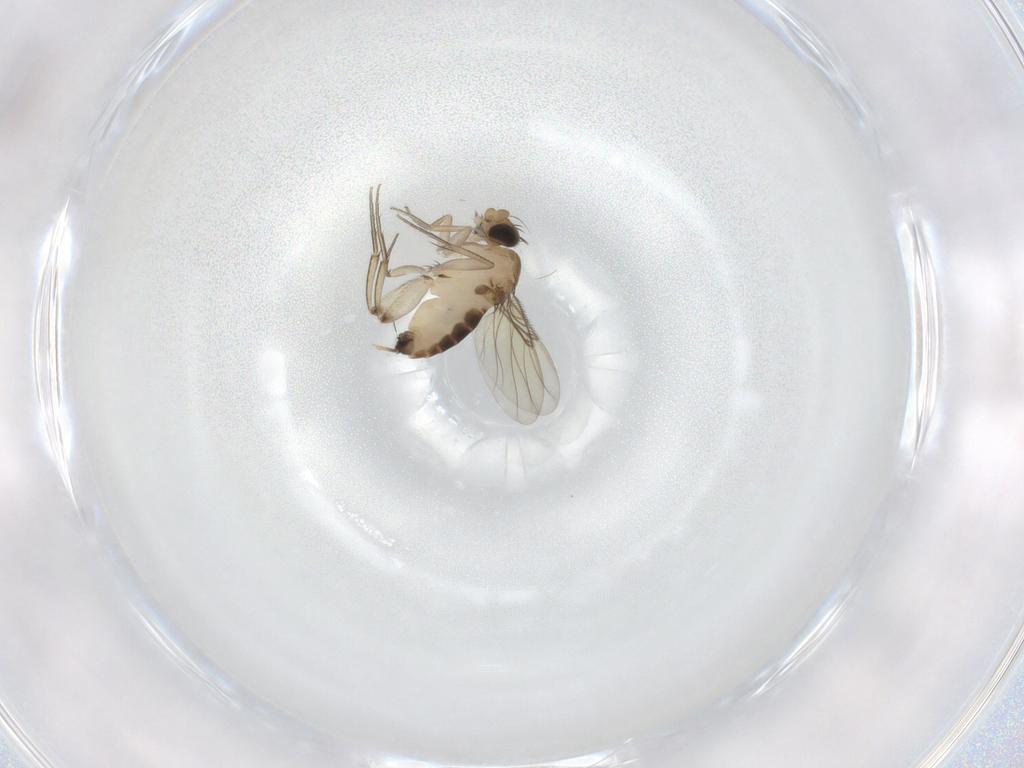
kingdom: Animalia
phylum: Arthropoda
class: Insecta
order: Diptera
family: Phoridae
